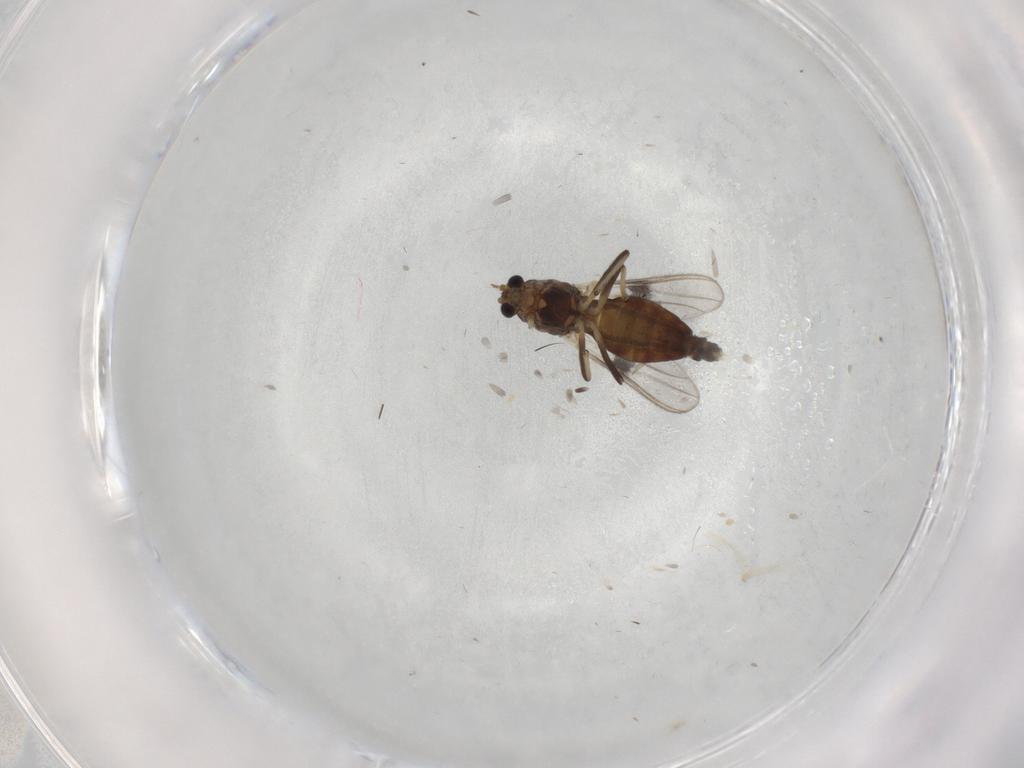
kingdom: Animalia
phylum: Arthropoda
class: Insecta
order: Diptera
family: Chironomidae
